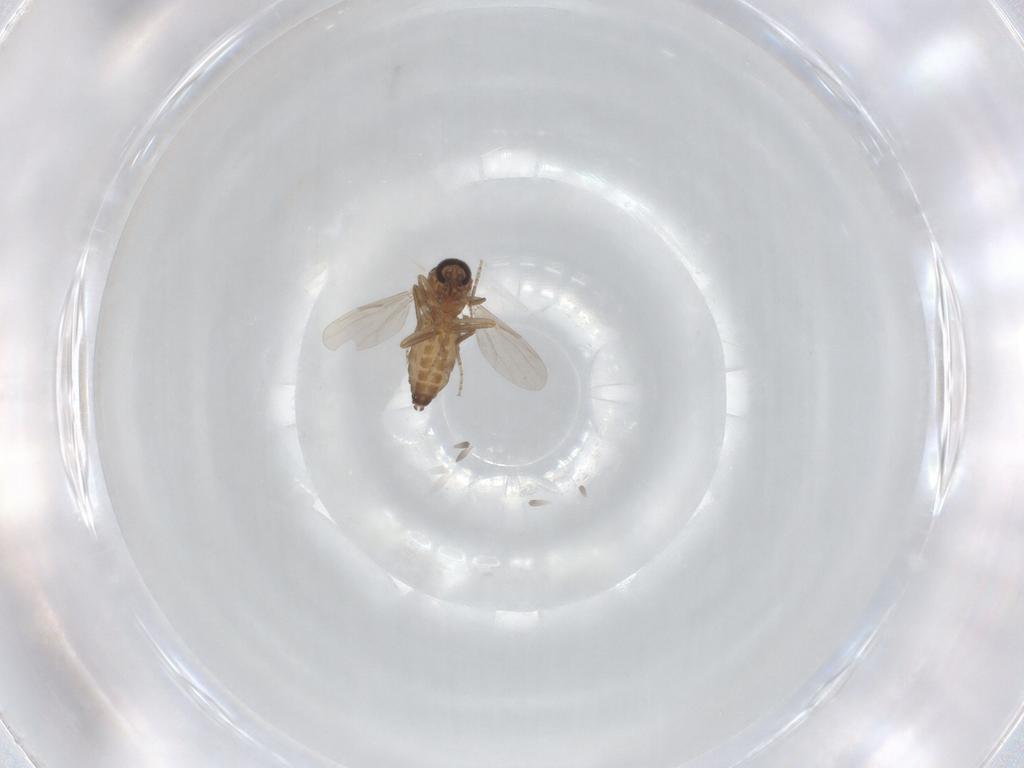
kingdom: Animalia
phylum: Arthropoda
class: Insecta
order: Diptera
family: Ceratopogonidae
